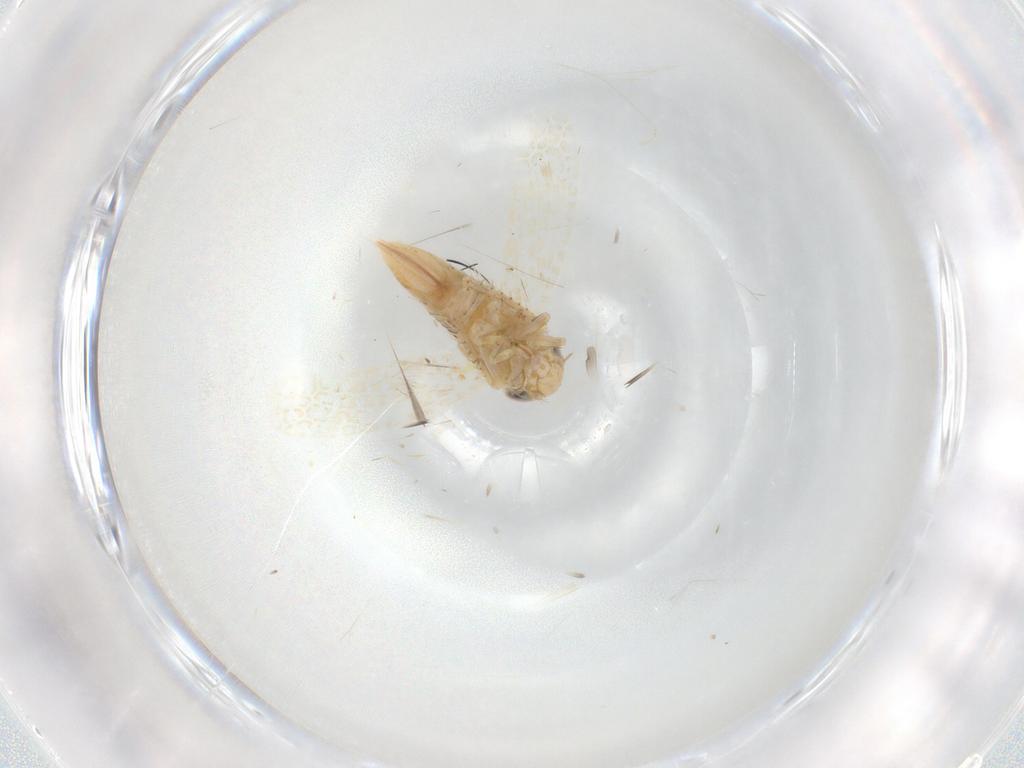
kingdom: Animalia
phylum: Arthropoda
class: Insecta
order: Hemiptera
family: Cicadellidae
